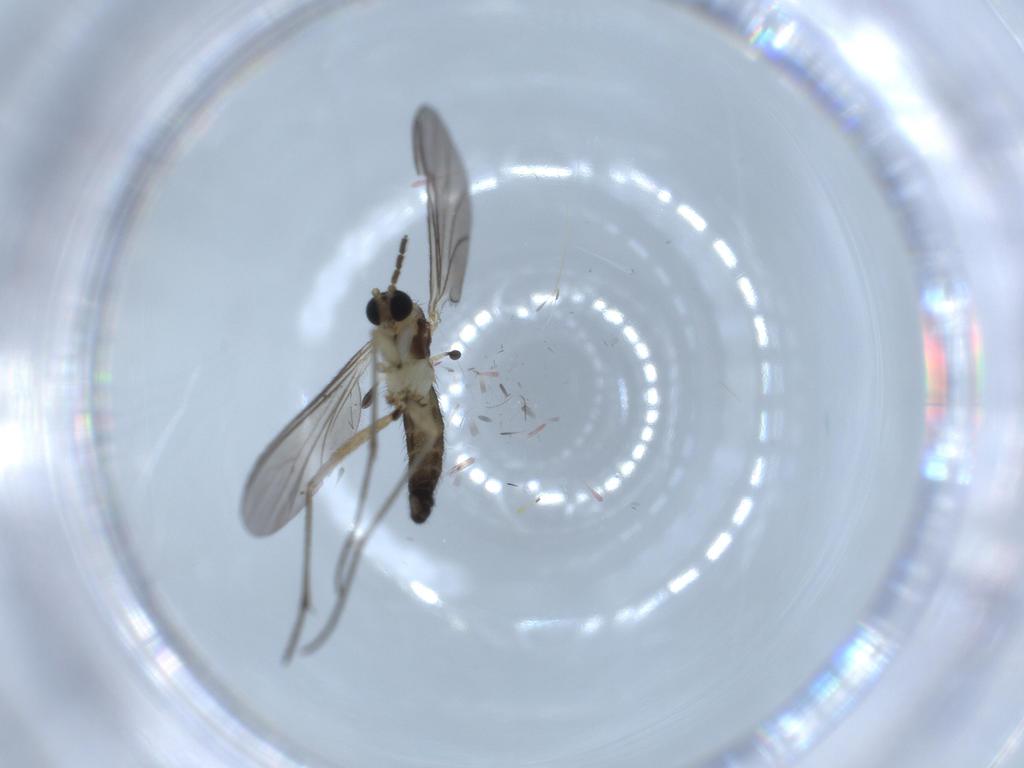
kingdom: Animalia
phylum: Arthropoda
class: Insecta
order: Diptera
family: Sciaridae
